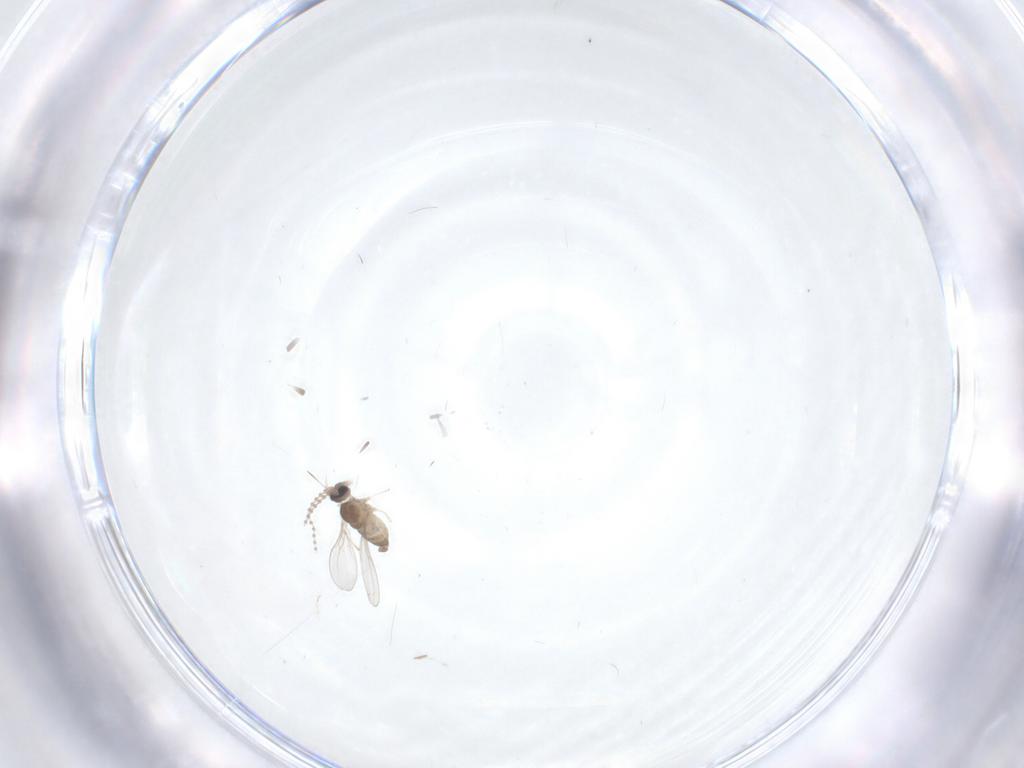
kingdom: Animalia
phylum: Arthropoda
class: Insecta
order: Diptera
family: Cecidomyiidae
